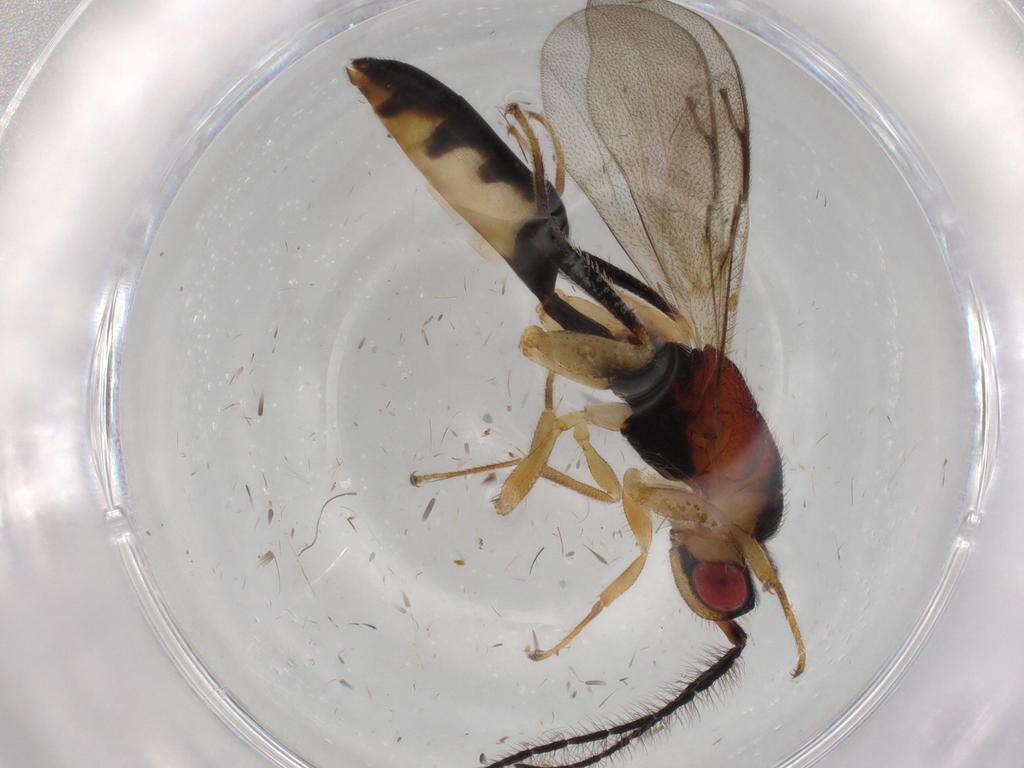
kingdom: Animalia
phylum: Arthropoda
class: Insecta
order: Hymenoptera
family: Eurytomidae
